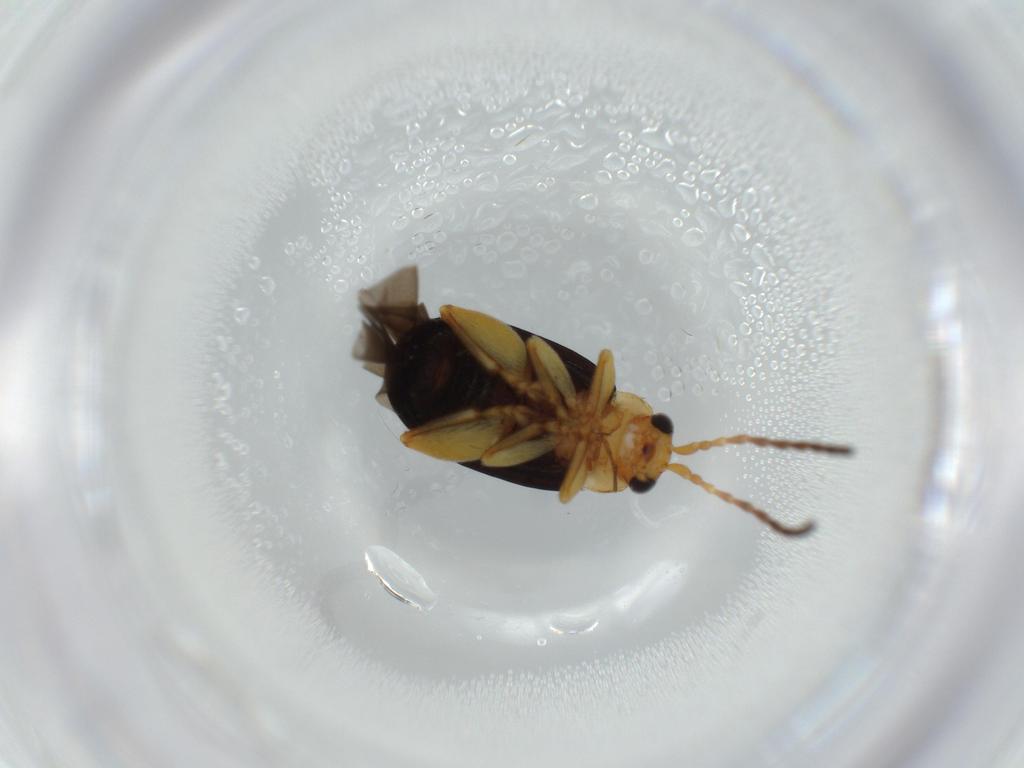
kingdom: Animalia
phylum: Arthropoda
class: Insecta
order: Coleoptera
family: Chrysomelidae
